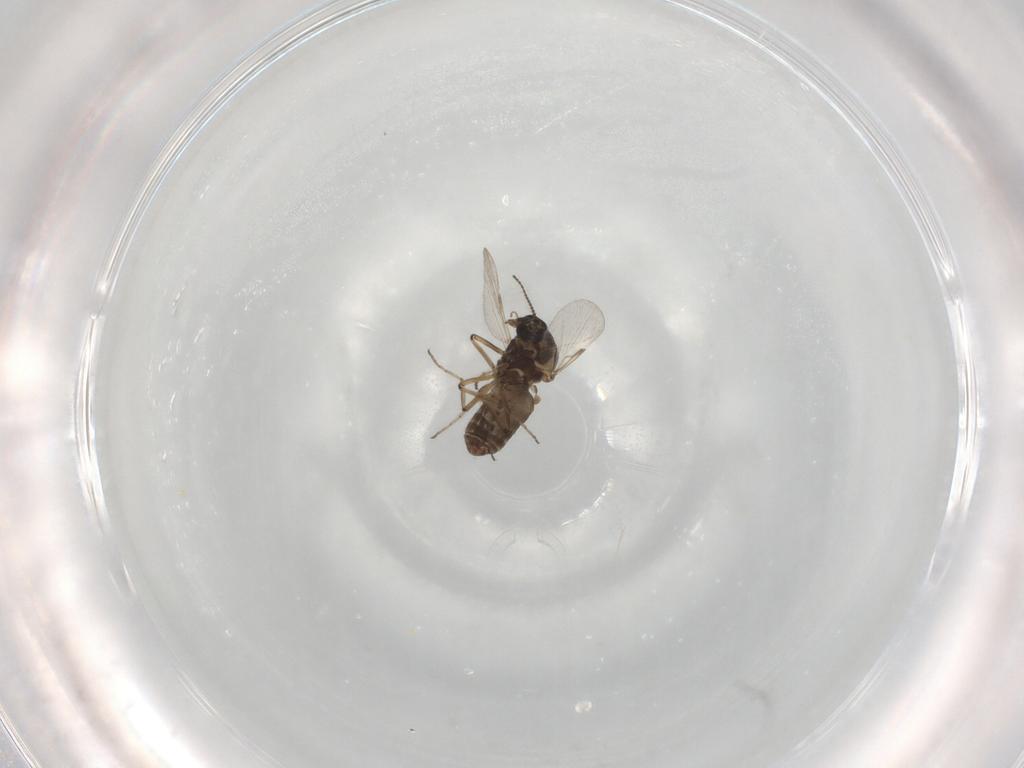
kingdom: Animalia
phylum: Arthropoda
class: Insecta
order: Diptera
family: Ceratopogonidae
